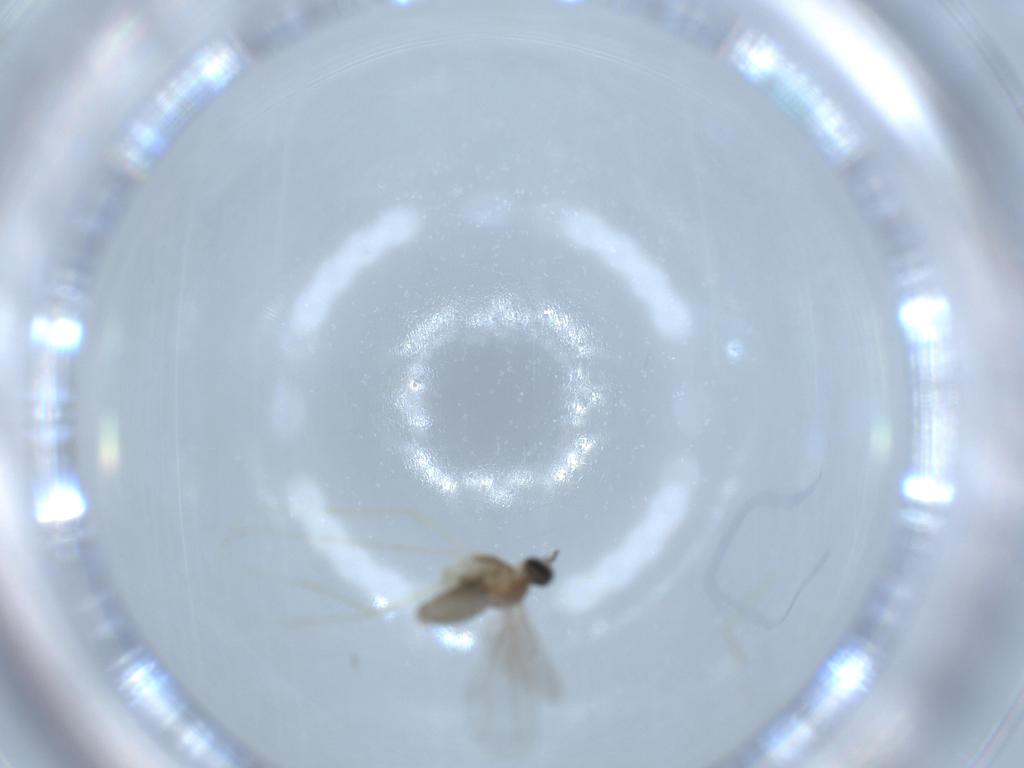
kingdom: Animalia
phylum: Arthropoda
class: Insecta
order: Diptera
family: Cecidomyiidae
